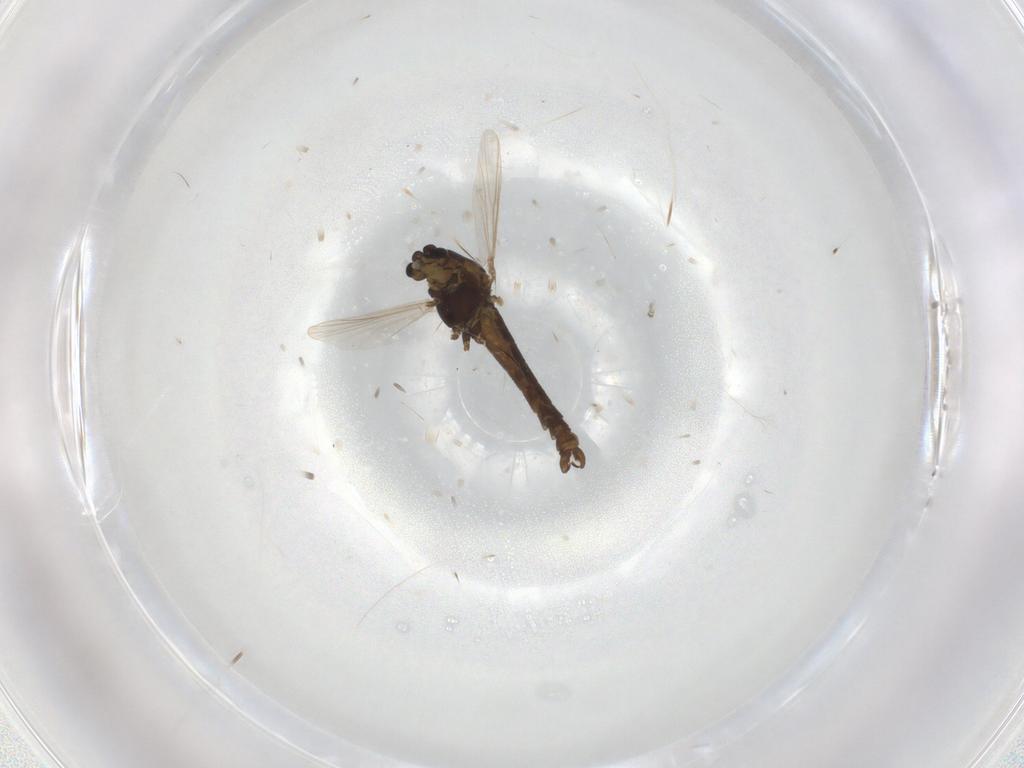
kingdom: Animalia
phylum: Arthropoda
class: Insecta
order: Diptera
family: Chironomidae
